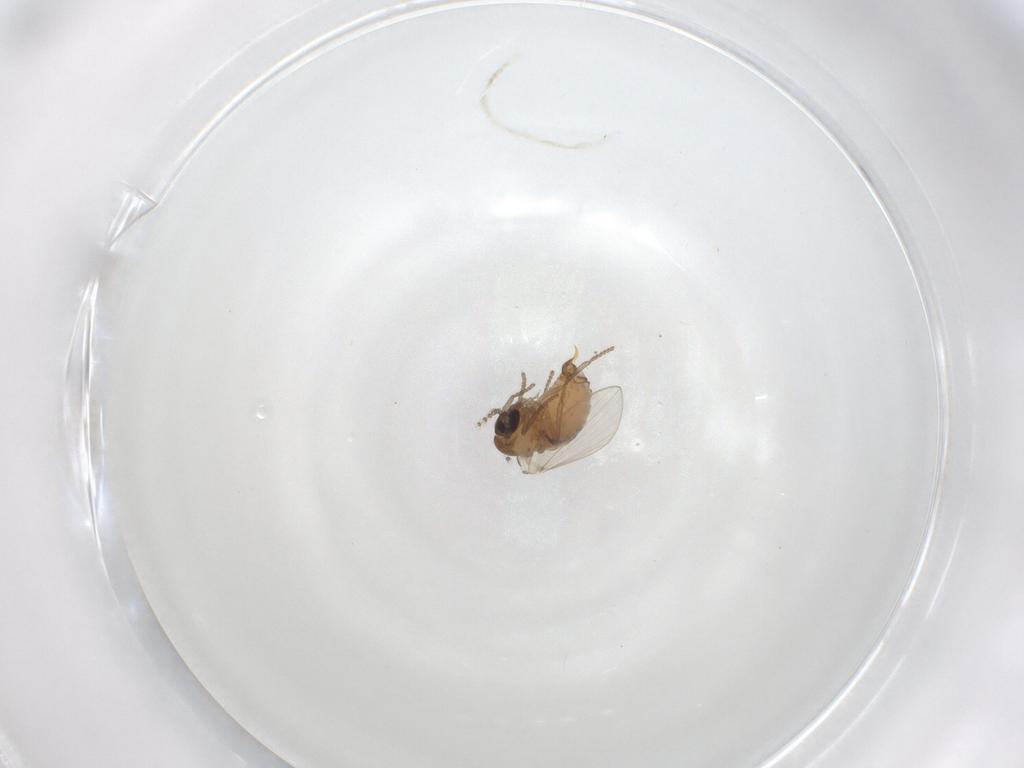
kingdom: Animalia
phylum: Arthropoda
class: Insecta
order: Diptera
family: Psychodidae
